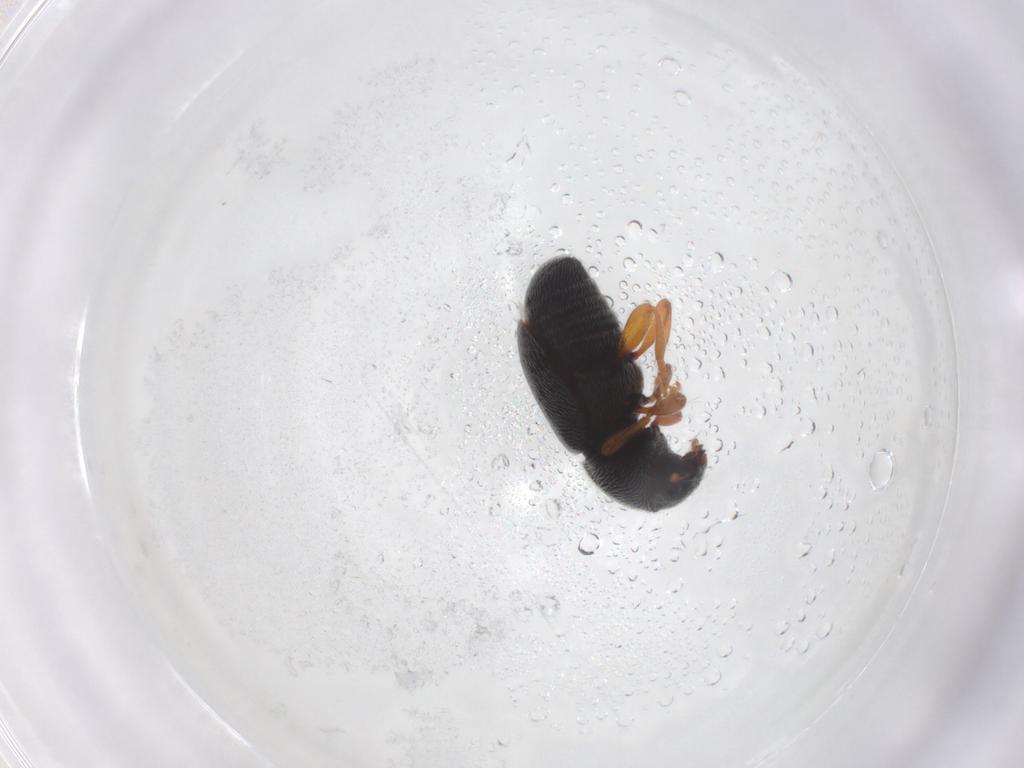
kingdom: Animalia
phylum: Arthropoda
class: Insecta
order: Coleoptera
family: Anthribidae
